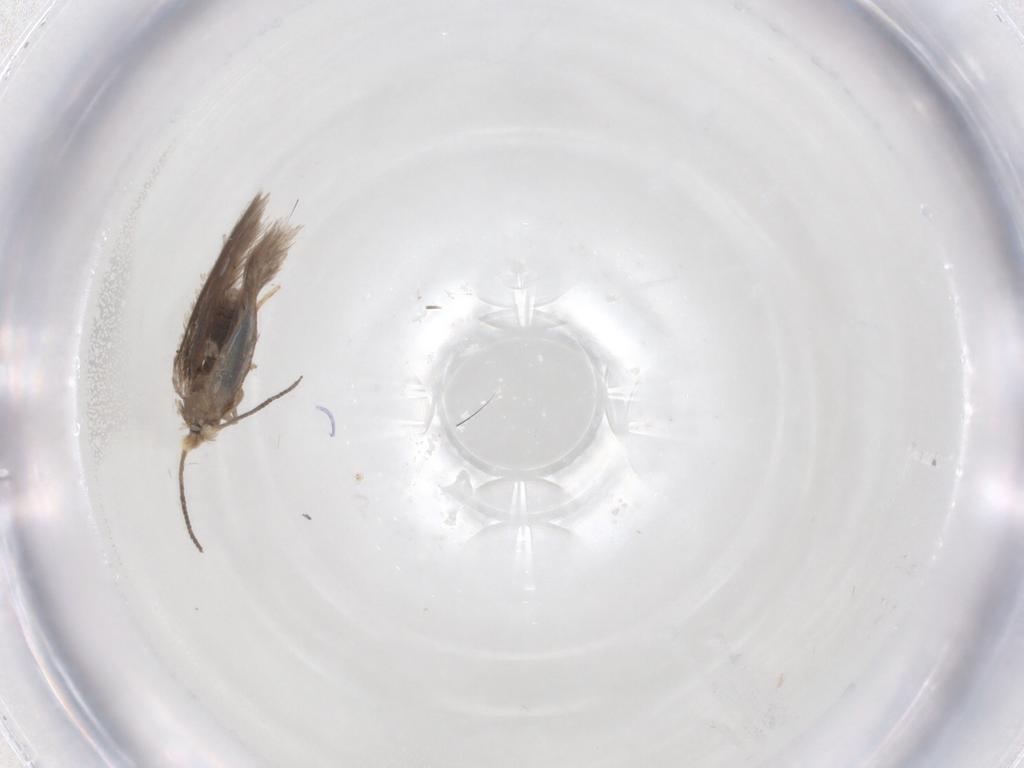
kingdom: Animalia
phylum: Arthropoda
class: Insecta
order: Lepidoptera
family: Nepticulidae
